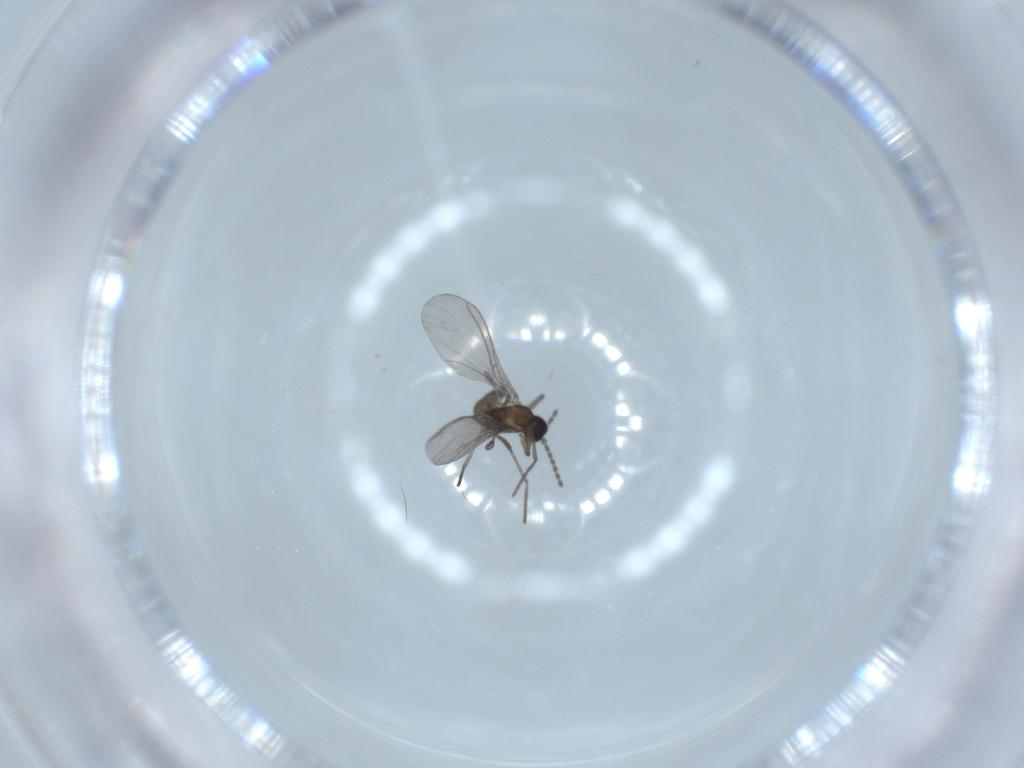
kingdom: Animalia
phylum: Arthropoda
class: Insecta
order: Diptera
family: Sciaridae
